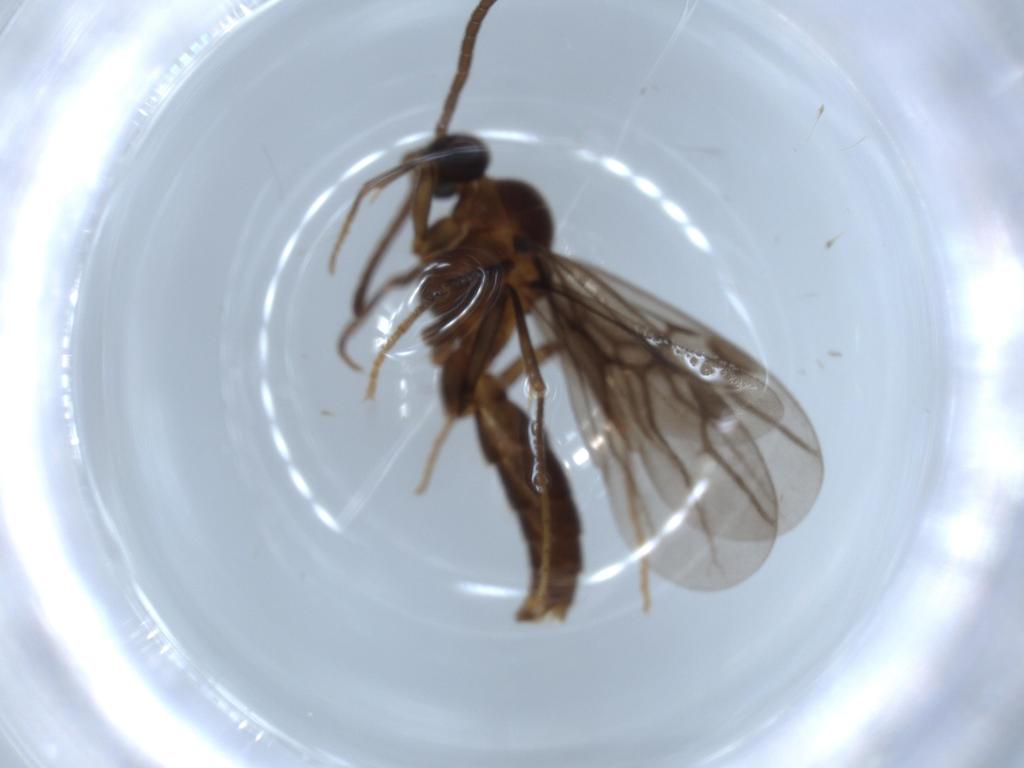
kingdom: Animalia
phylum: Arthropoda
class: Insecta
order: Hymenoptera
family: Formicidae
